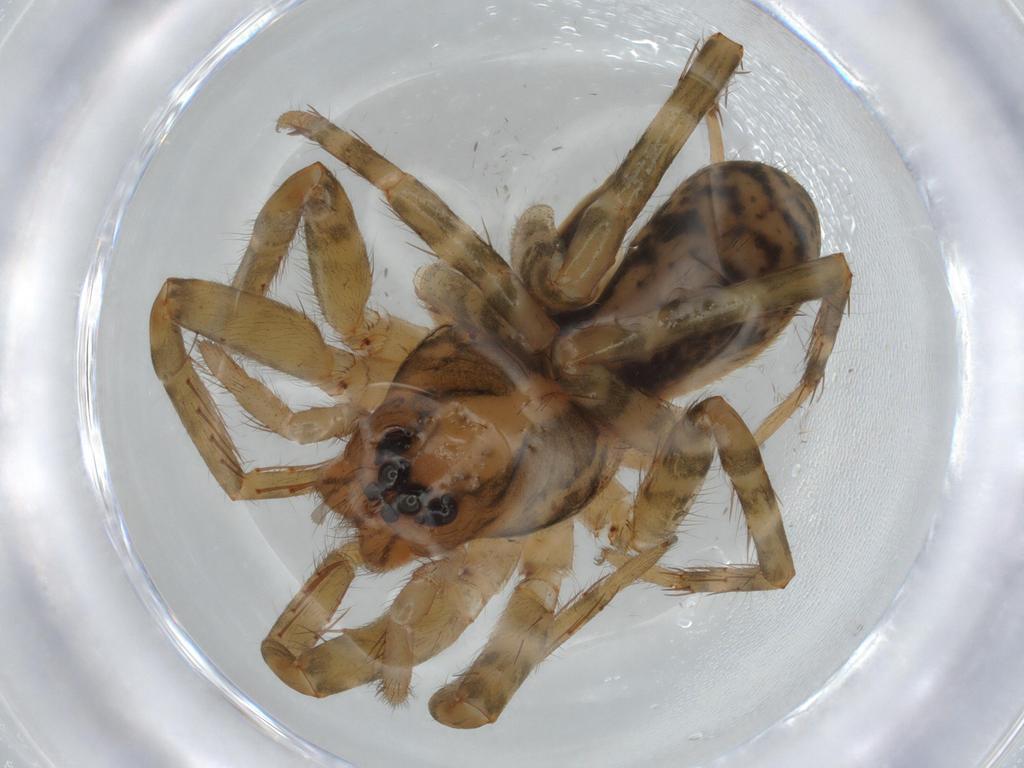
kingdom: Animalia
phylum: Arthropoda
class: Arachnida
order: Araneae
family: Ctenidae
